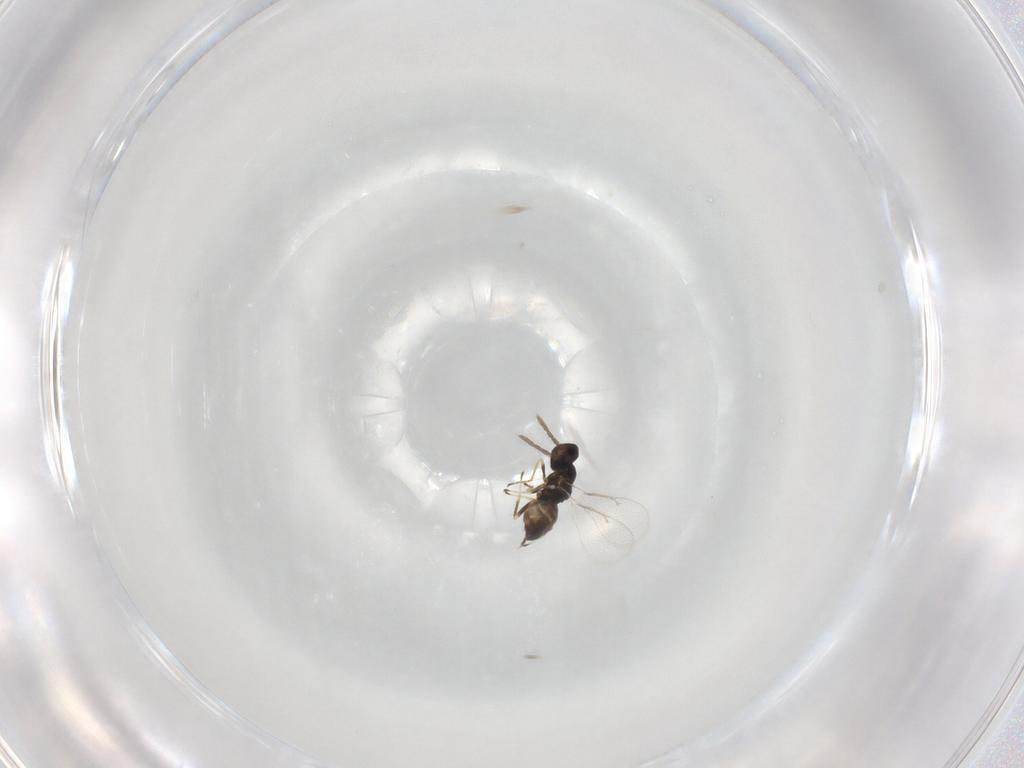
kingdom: Animalia
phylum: Arthropoda
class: Insecta
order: Hymenoptera
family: Eulophidae
